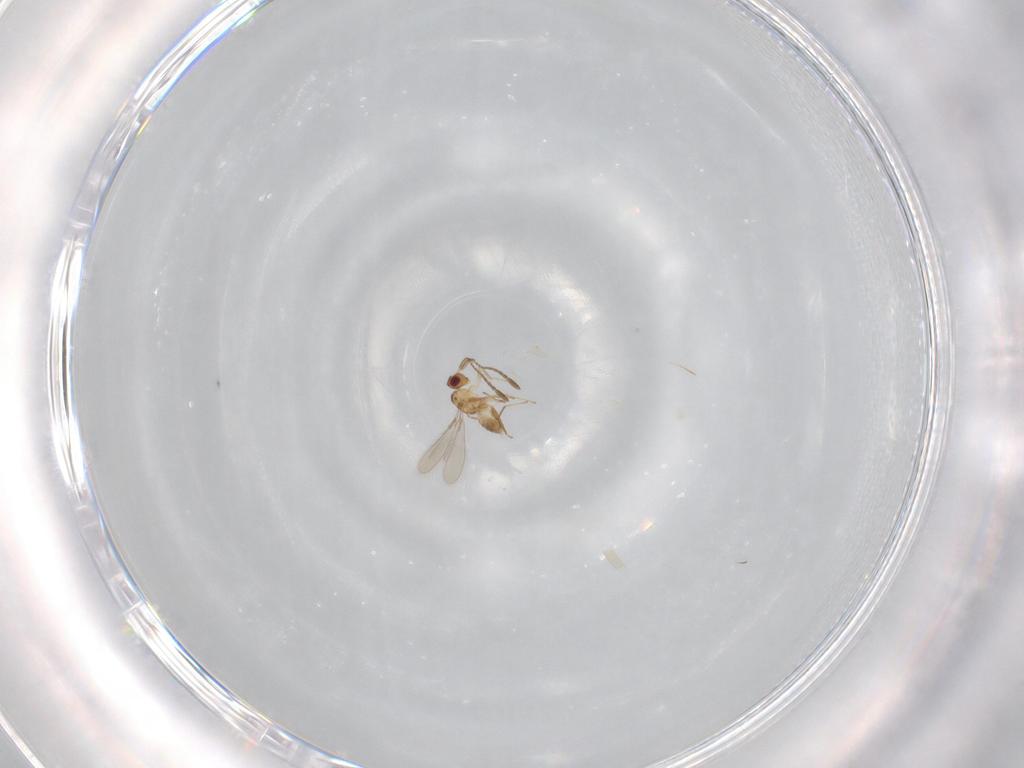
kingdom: Animalia
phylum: Arthropoda
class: Insecta
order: Hymenoptera
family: Mymaridae
